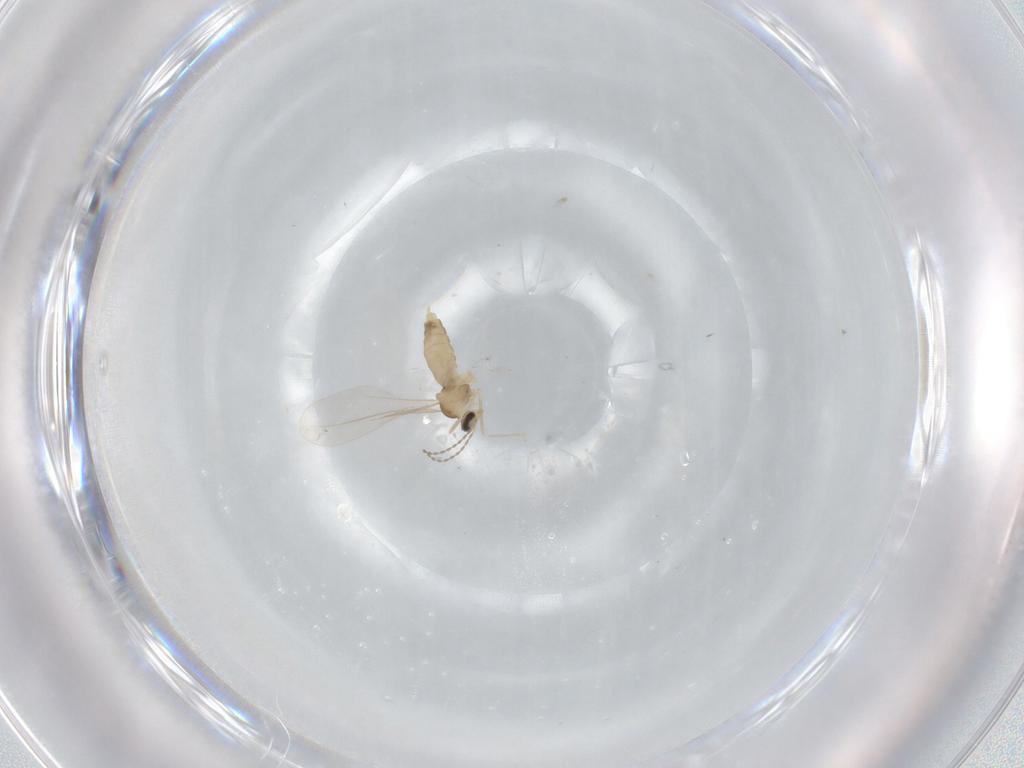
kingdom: Animalia
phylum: Arthropoda
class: Insecta
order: Diptera
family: Cecidomyiidae
